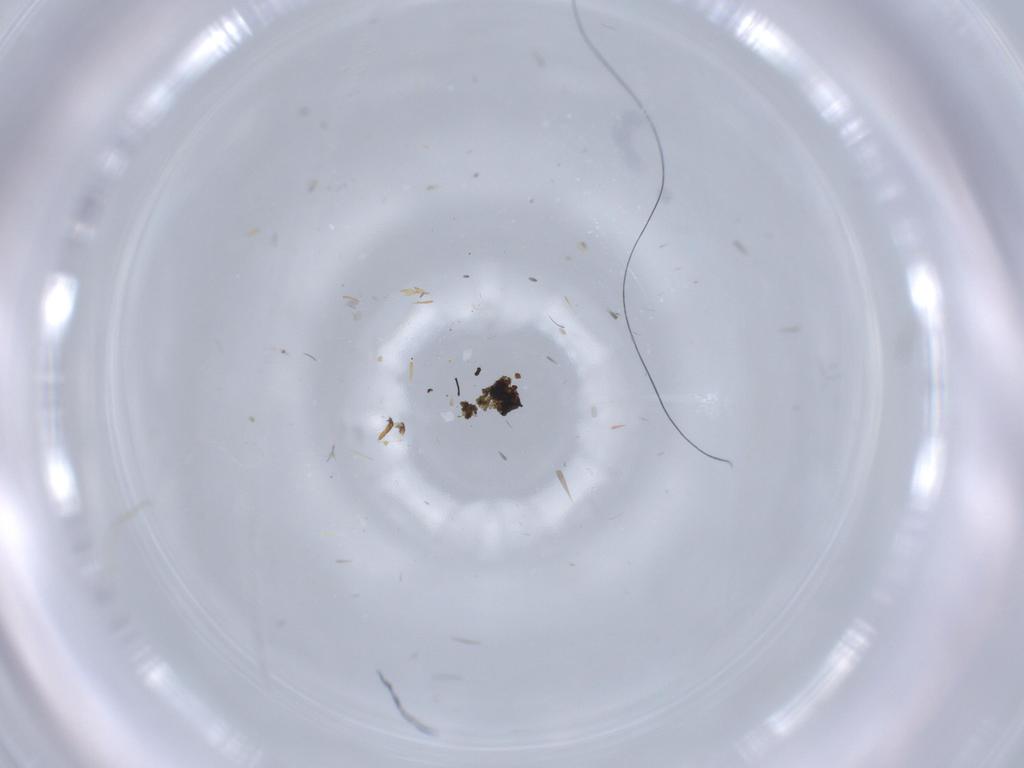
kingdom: Animalia
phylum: Arthropoda
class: Insecta
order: Diptera
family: Sciaridae
